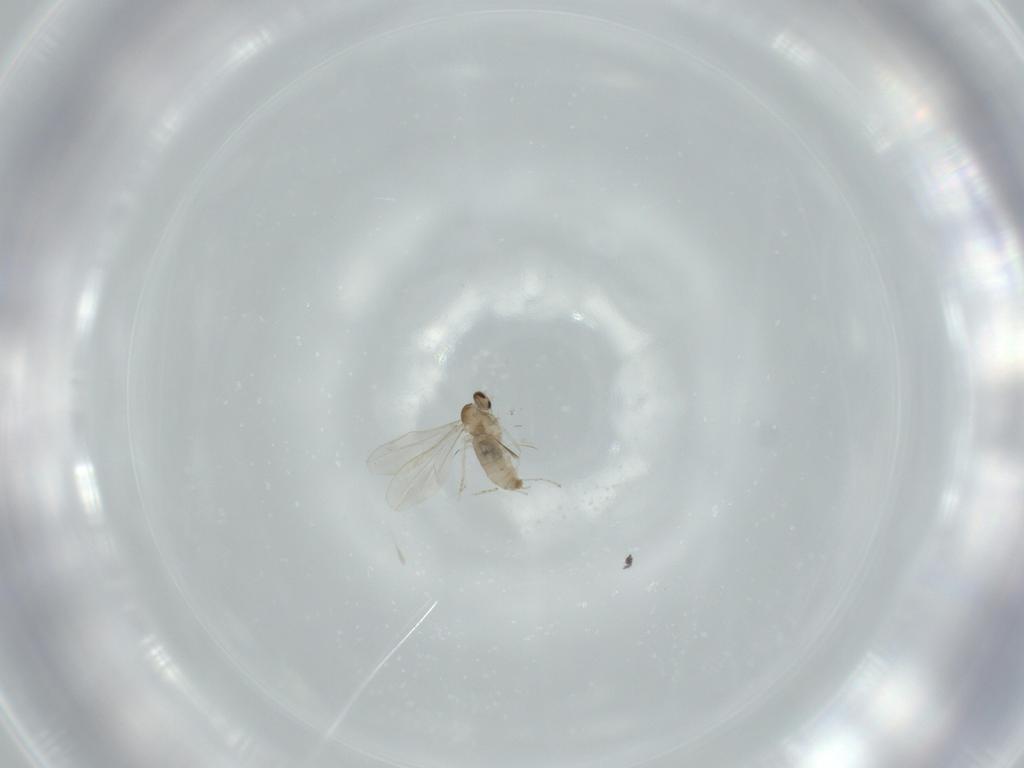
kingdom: Animalia
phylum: Arthropoda
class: Insecta
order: Diptera
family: Cecidomyiidae
